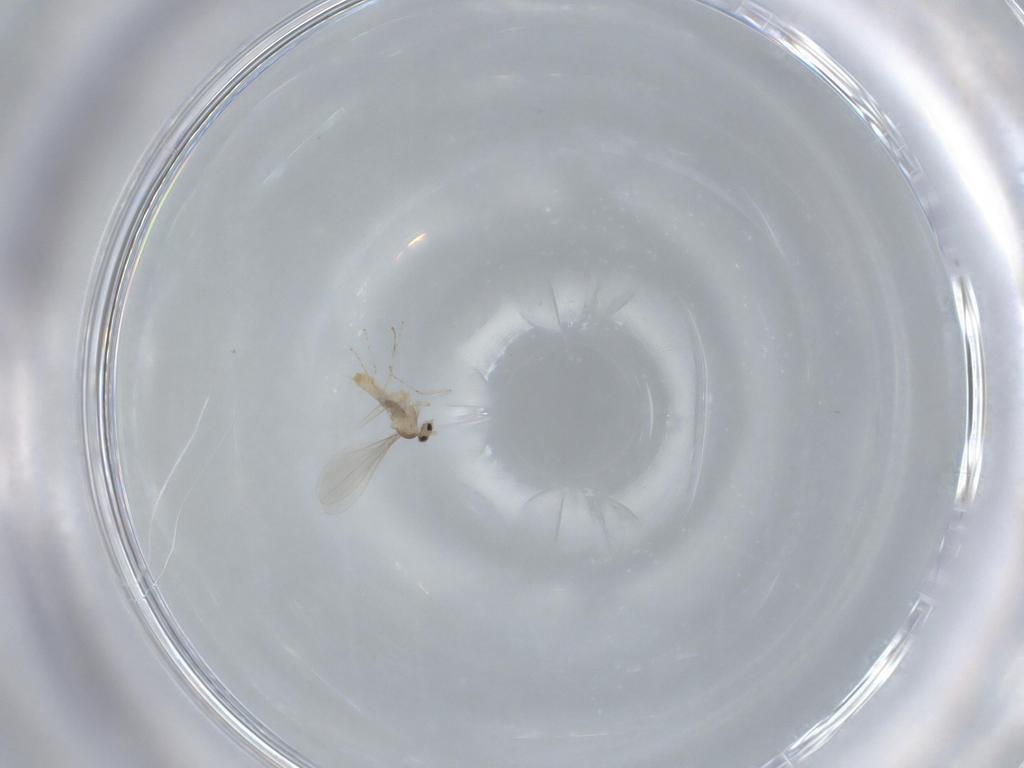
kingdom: Animalia
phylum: Arthropoda
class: Insecta
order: Diptera
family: Cecidomyiidae
